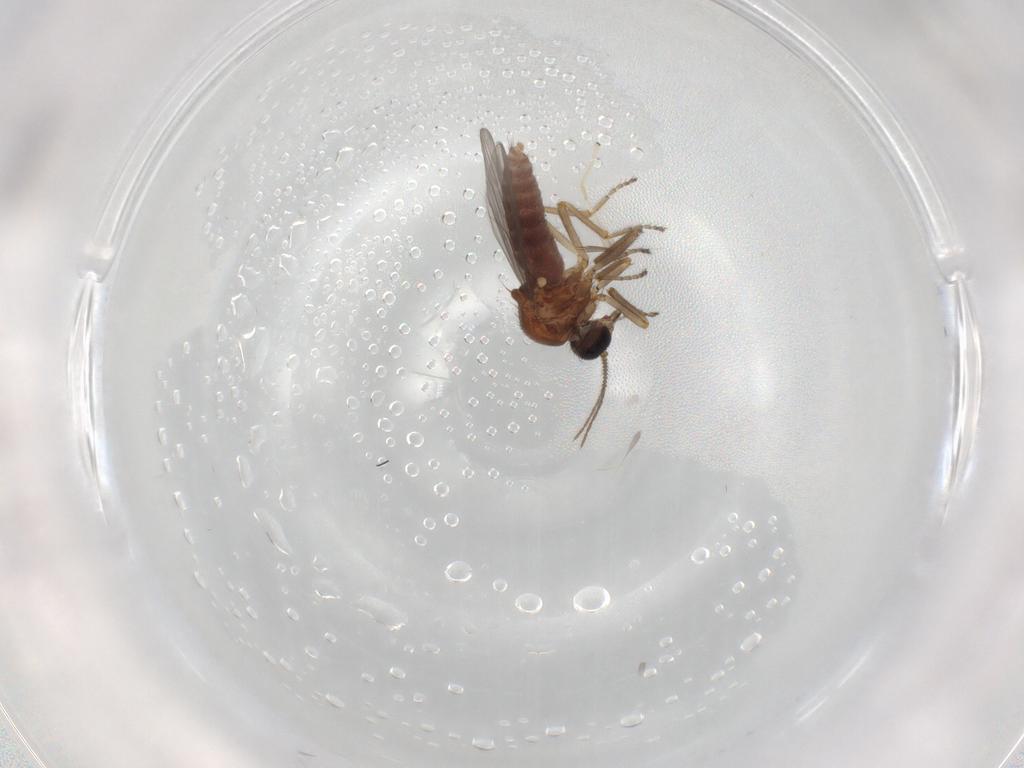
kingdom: Animalia
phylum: Arthropoda
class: Insecta
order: Diptera
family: Ceratopogonidae
